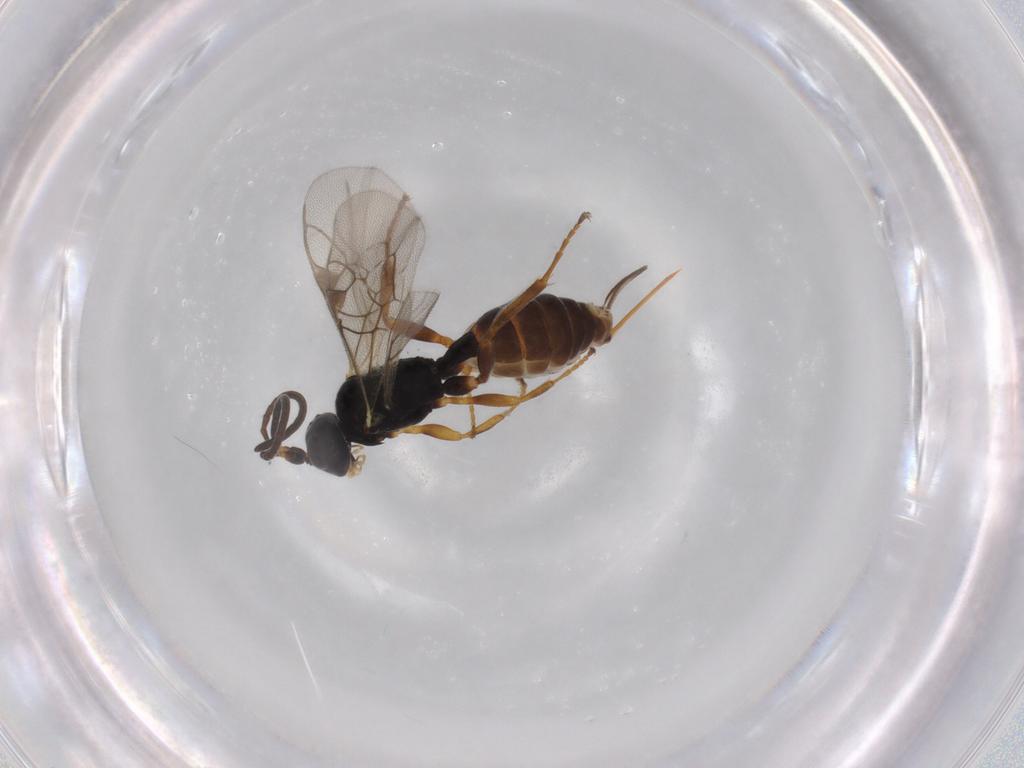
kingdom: Animalia
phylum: Arthropoda
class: Insecta
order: Hymenoptera
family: Ichneumonidae
